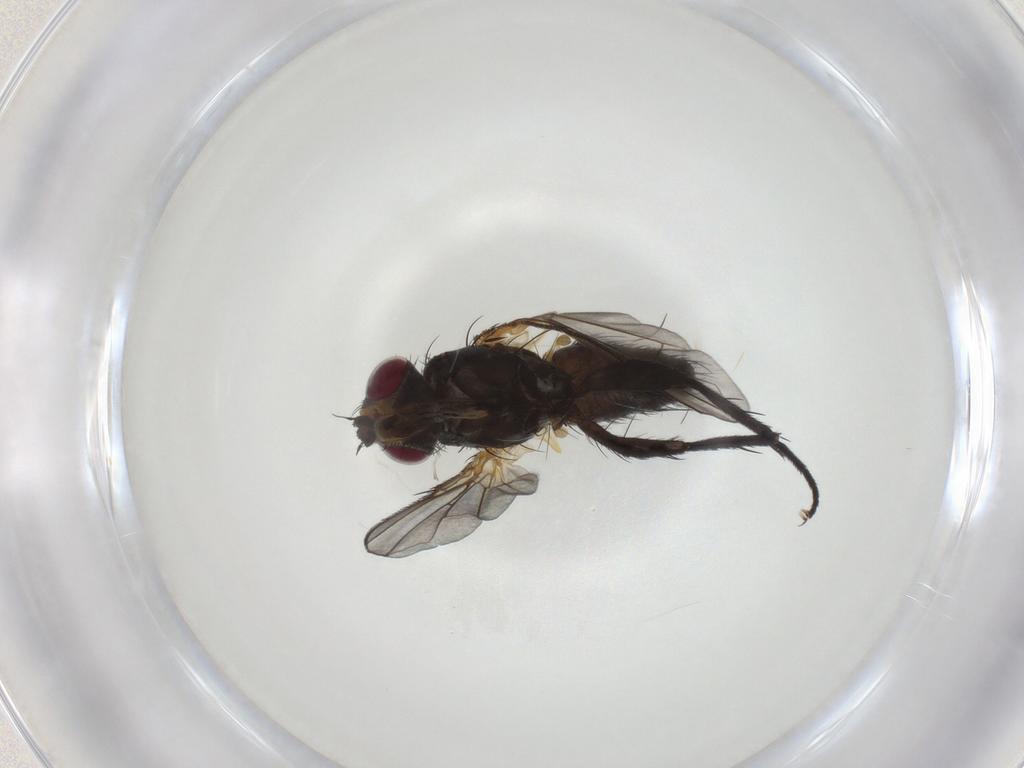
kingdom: Animalia
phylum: Arthropoda
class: Insecta
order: Diptera
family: Calliphoridae
